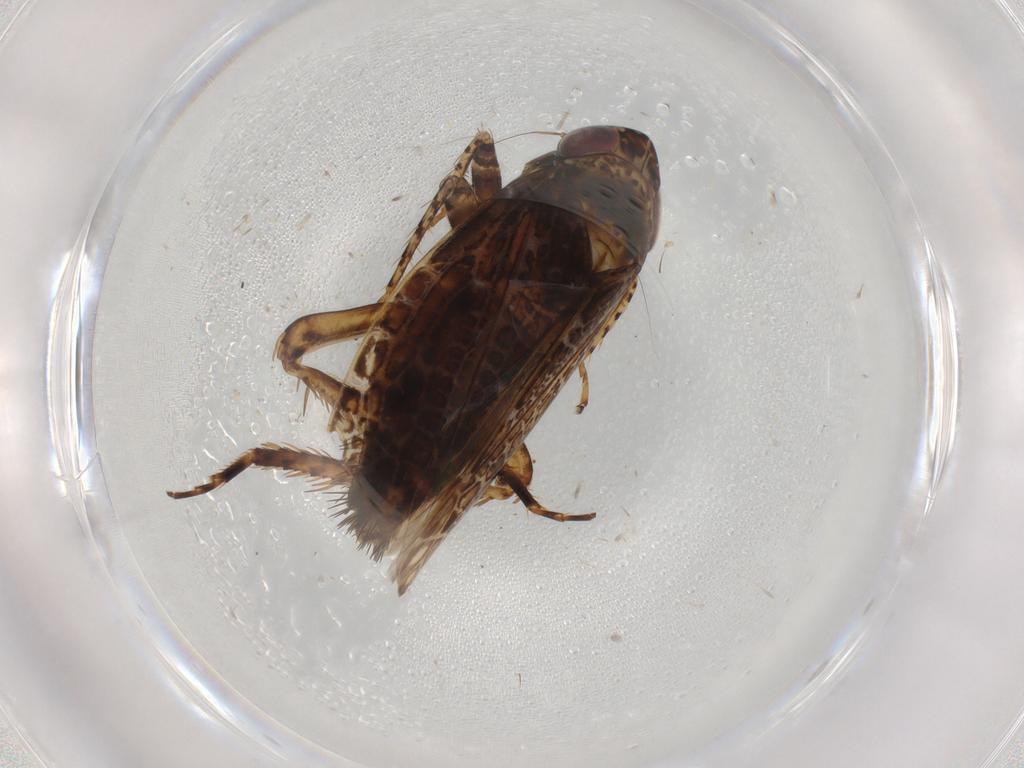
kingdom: Animalia
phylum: Arthropoda
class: Insecta
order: Hemiptera
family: Cicadellidae
